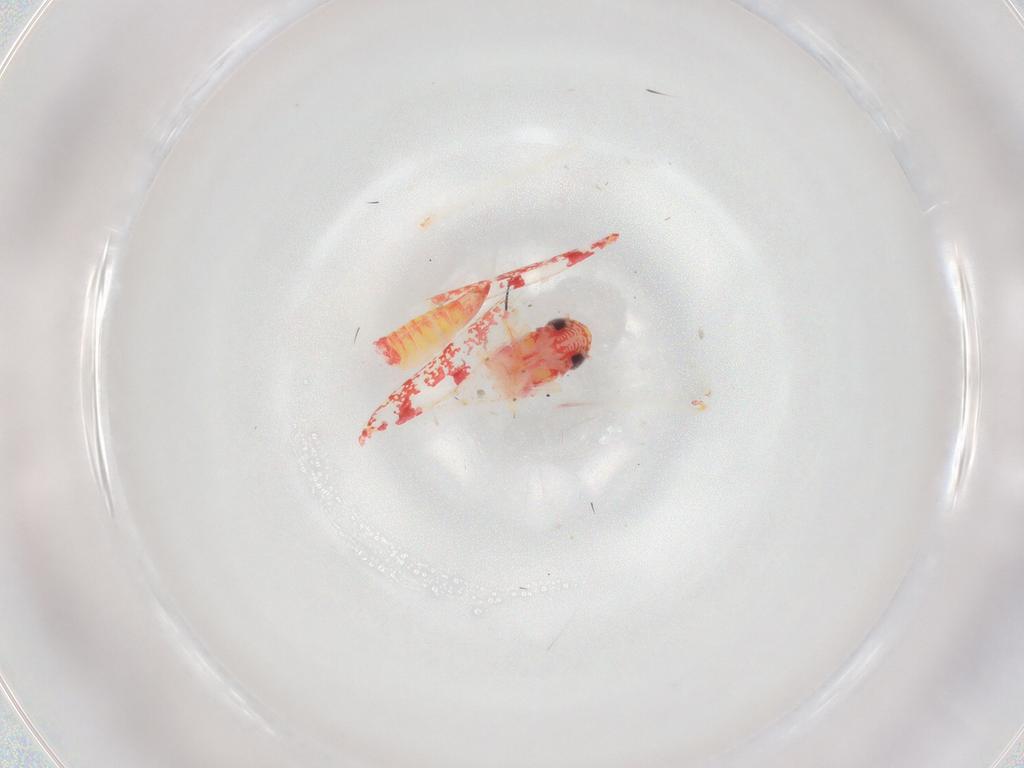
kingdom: Animalia
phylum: Arthropoda
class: Insecta
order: Hemiptera
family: Cicadellidae
